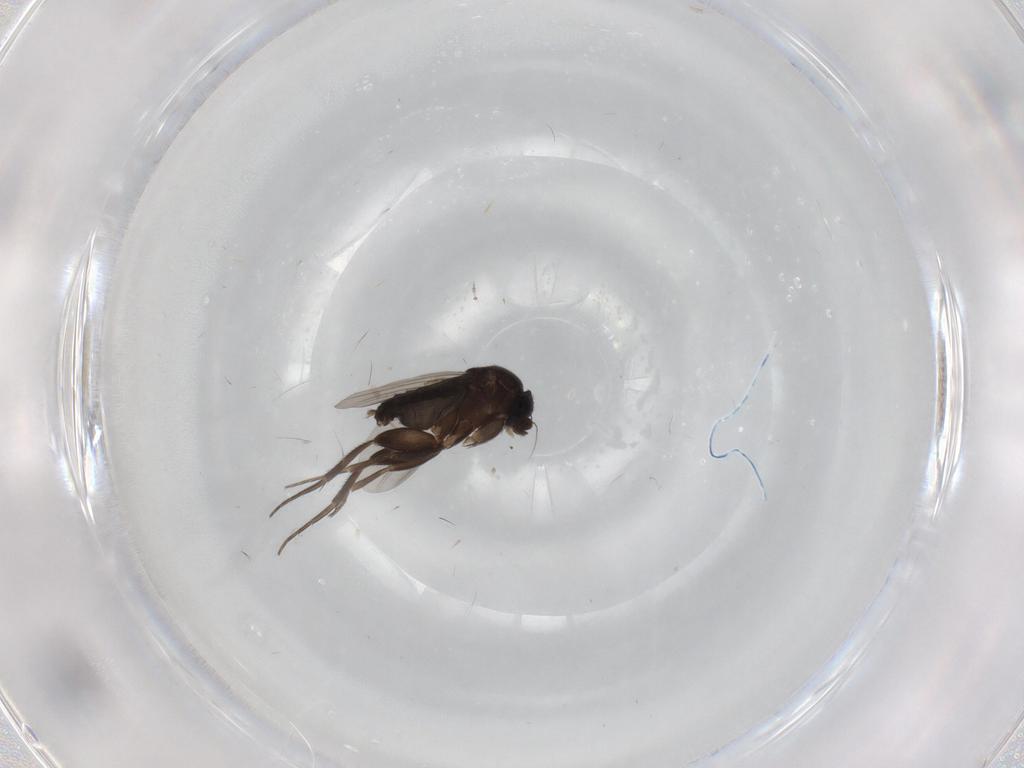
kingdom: Animalia
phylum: Arthropoda
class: Insecta
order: Diptera
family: Phoridae
